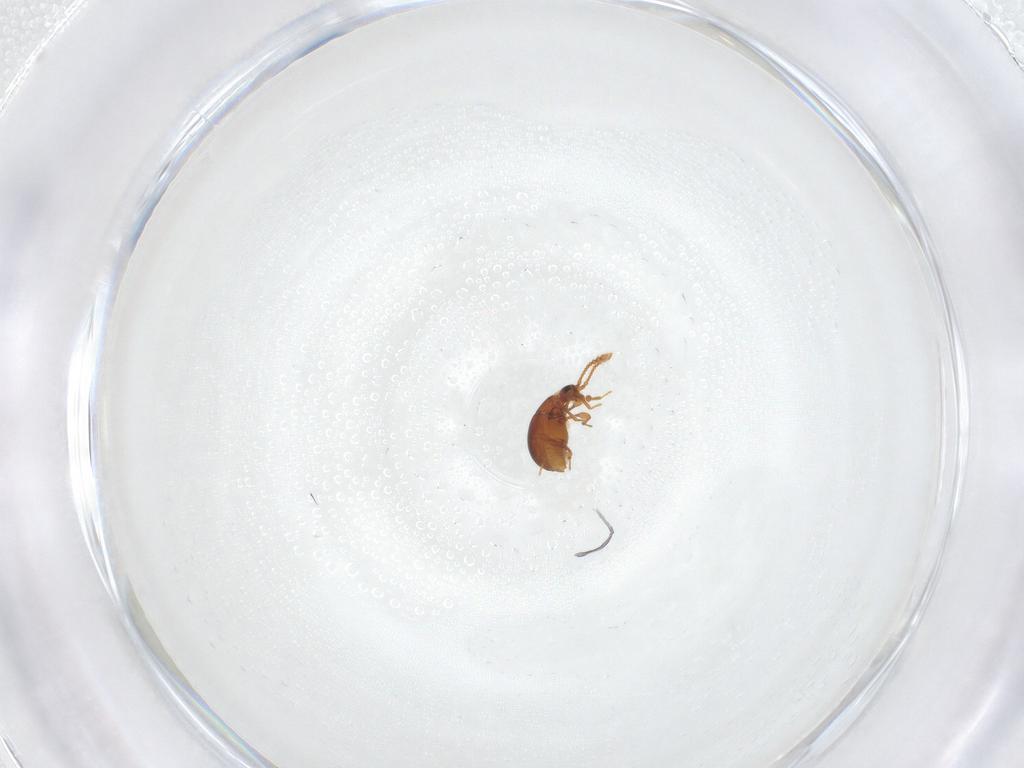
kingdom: Animalia
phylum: Arthropoda
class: Insecta
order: Coleoptera
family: Staphylinidae
